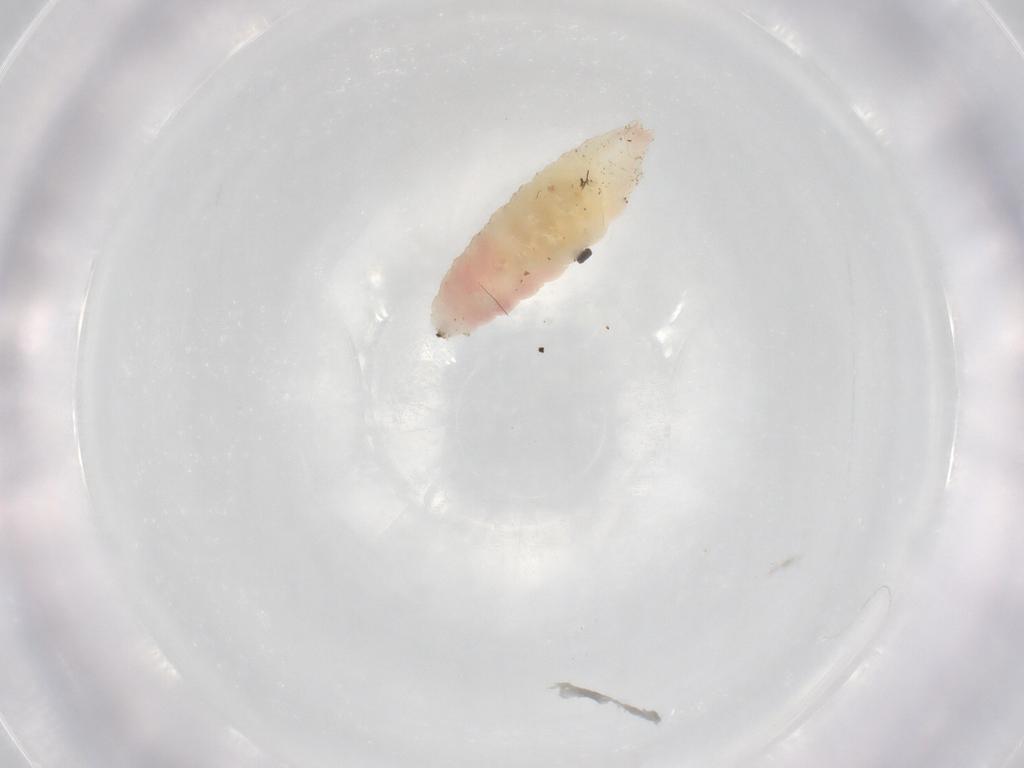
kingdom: Animalia
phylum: Arthropoda
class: Insecta
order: Diptera
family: Cecidomyiidae
